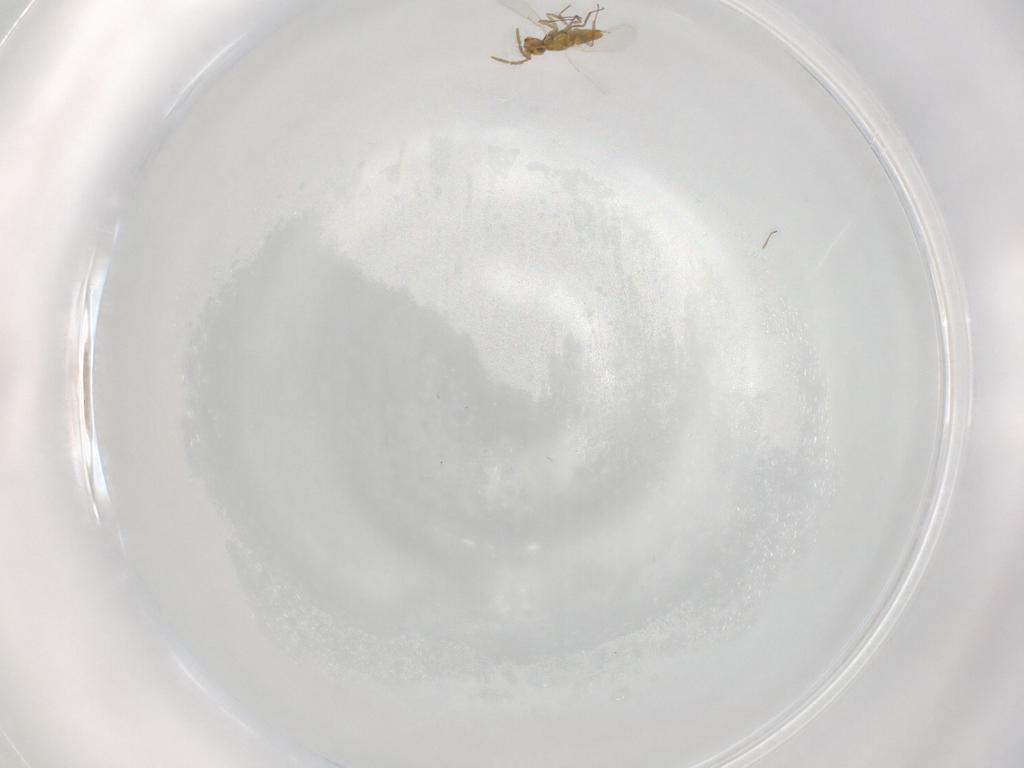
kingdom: Animalia
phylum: Arthropoda
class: Insecta
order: Hymenoptera
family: Aphelinidae
